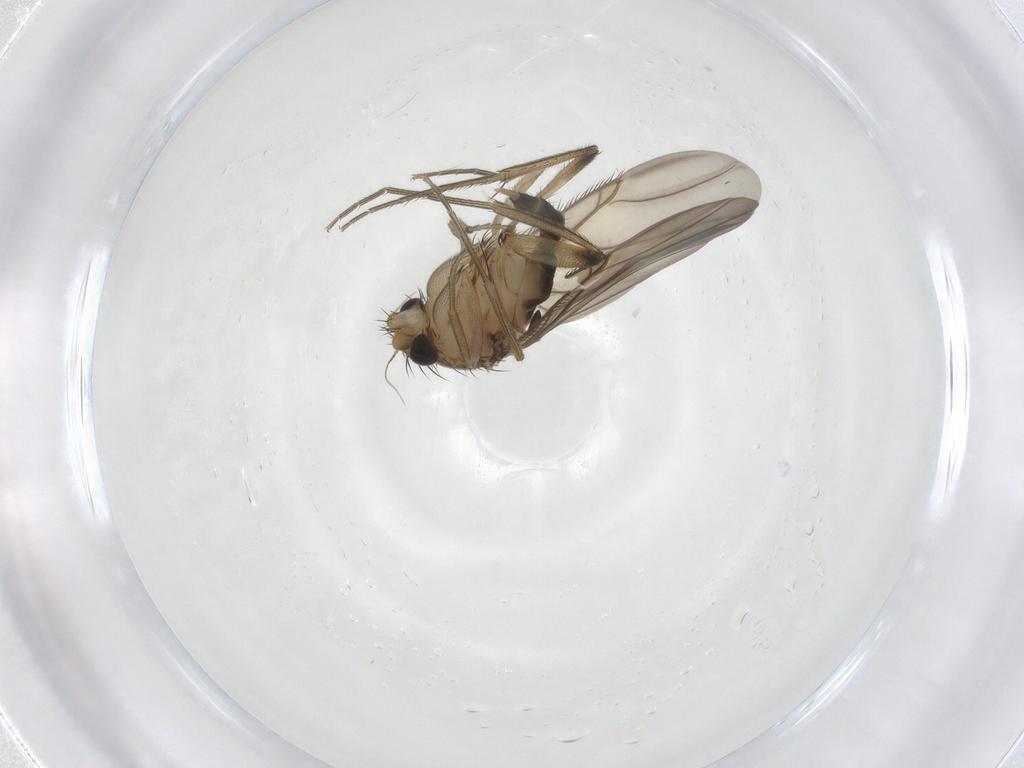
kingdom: Animalia
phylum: Arthropoda
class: Insecta
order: Diptera
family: Phoridae
